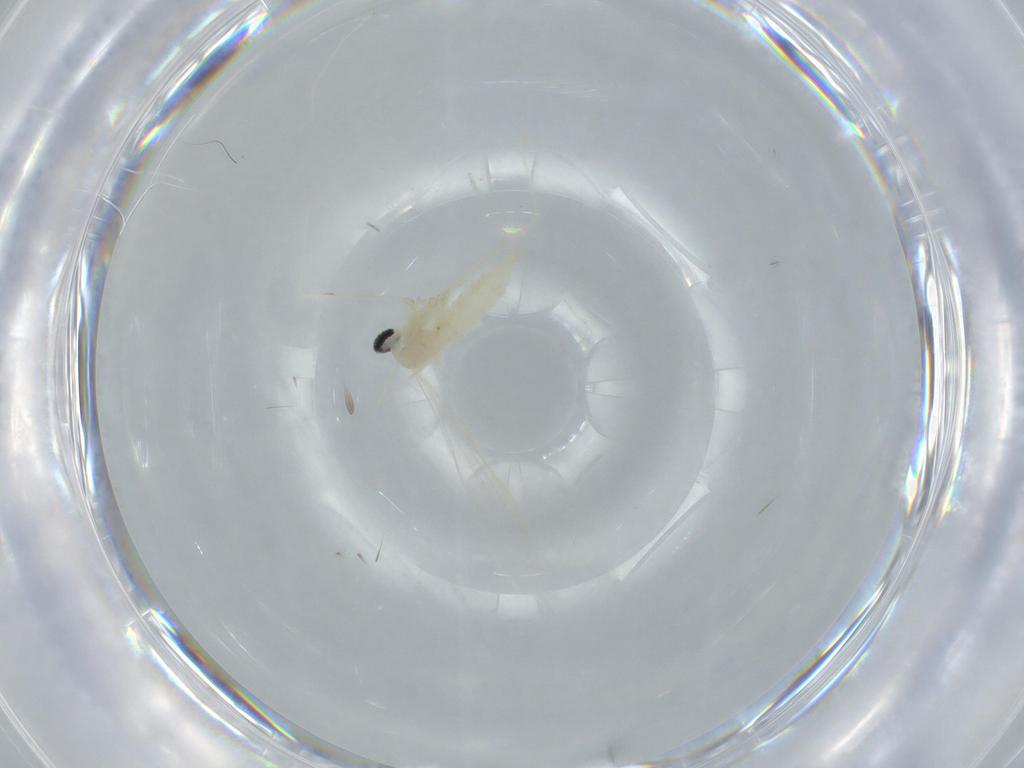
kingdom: Animalia
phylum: Arthropoda
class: Insecta
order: Diptera
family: Cecidomyiidae
